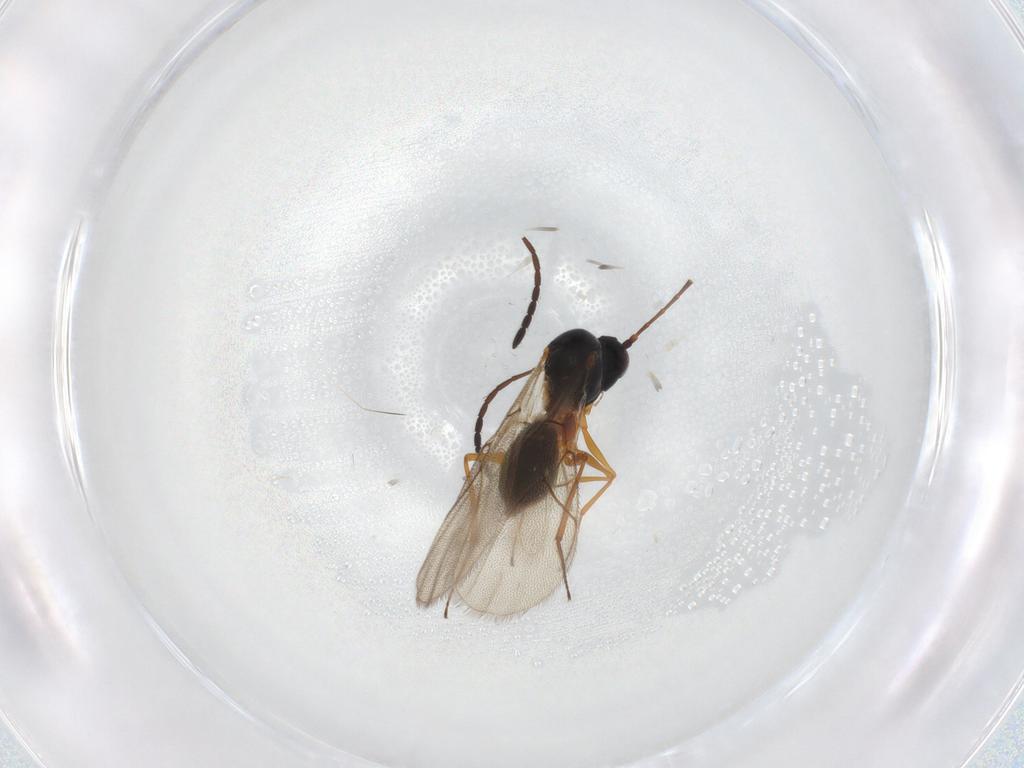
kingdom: Animalia
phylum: Arthropoda
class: Insecta
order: Hymenoptera
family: Figitidae
